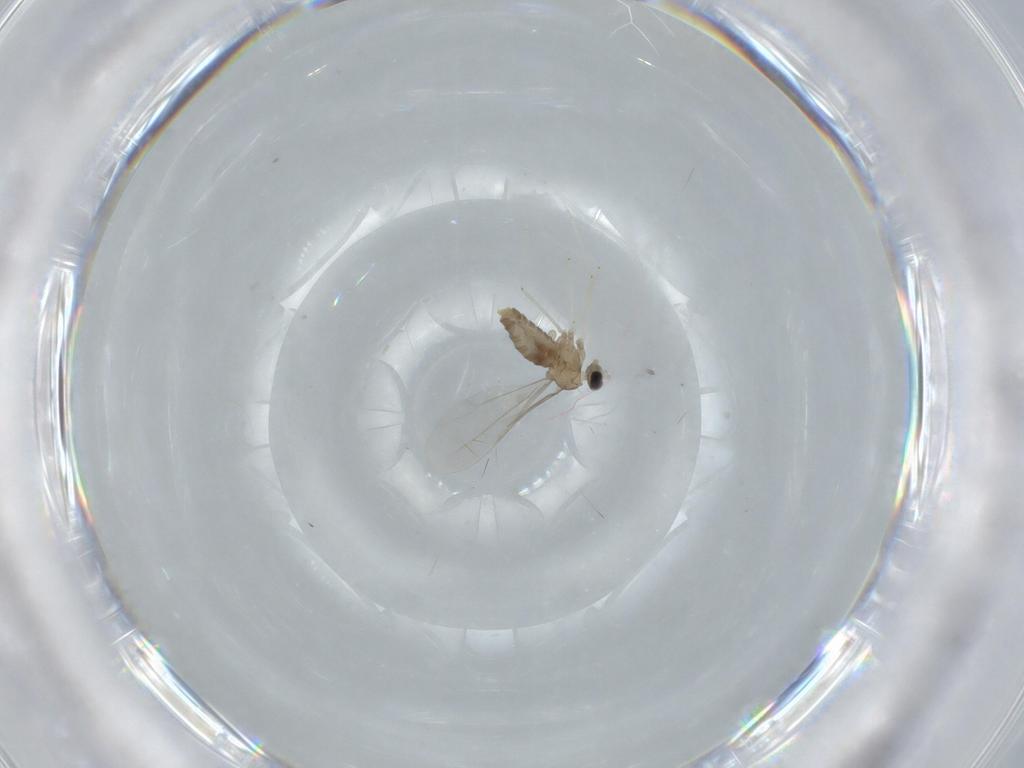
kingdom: Animalia
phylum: Arthropoda
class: Insecta
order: Diptera
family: Cecidomyiidae
